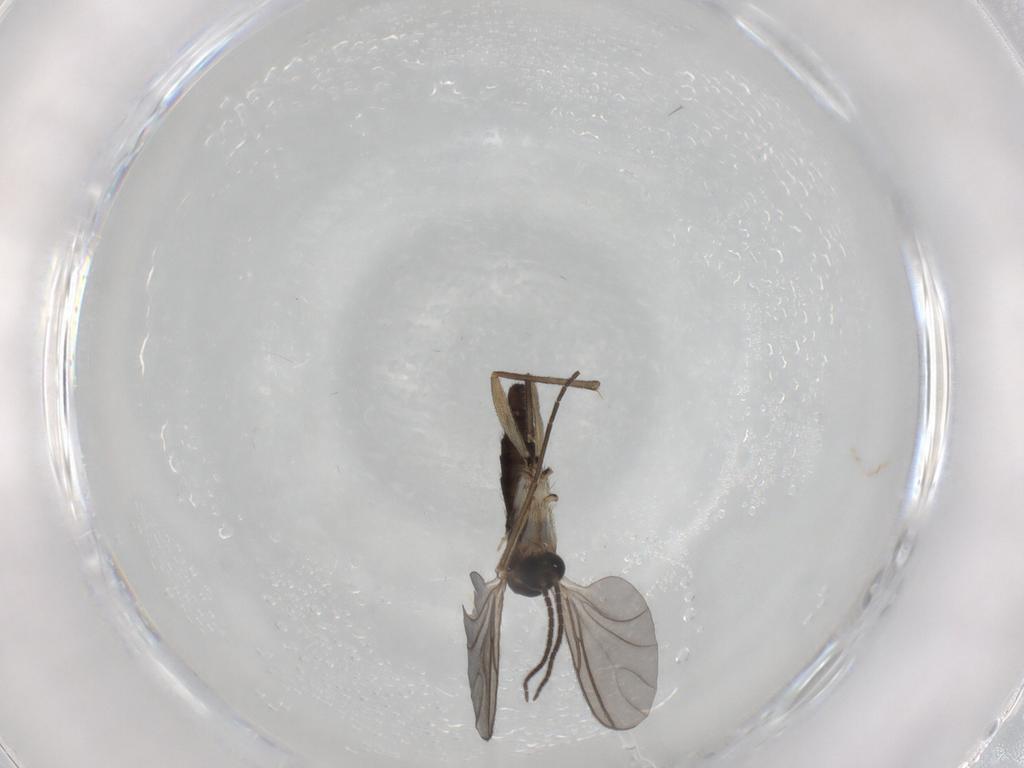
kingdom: Animalia
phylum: Arthropoda
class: Insecta
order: Diptera
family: Sciaridae
